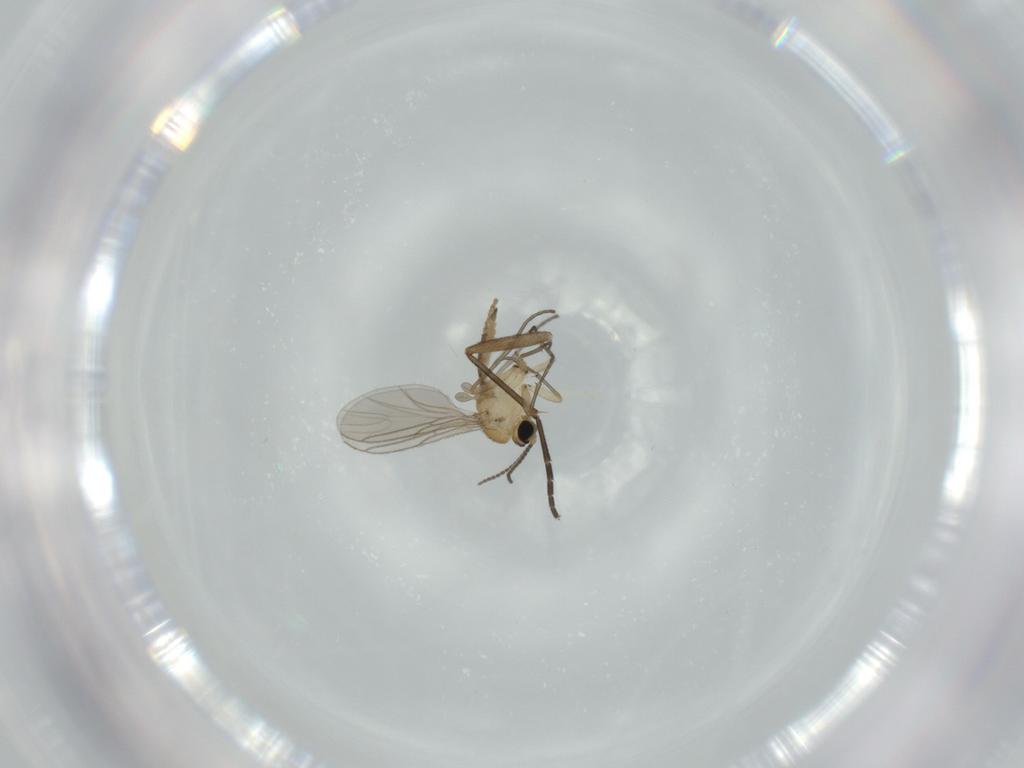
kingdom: Animalia
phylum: Arthropoda
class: Insecta
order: Diptera
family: Sciaridae
